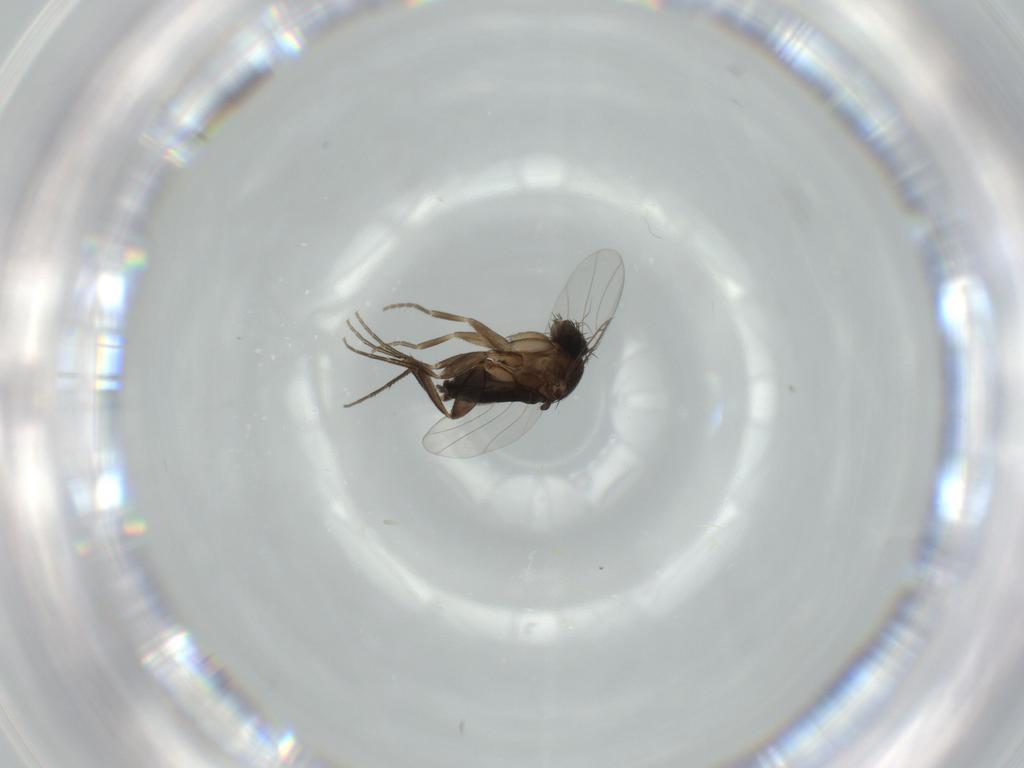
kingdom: Animalia
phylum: Arthropoda
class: Insecta
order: Diptera
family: Phoridae
